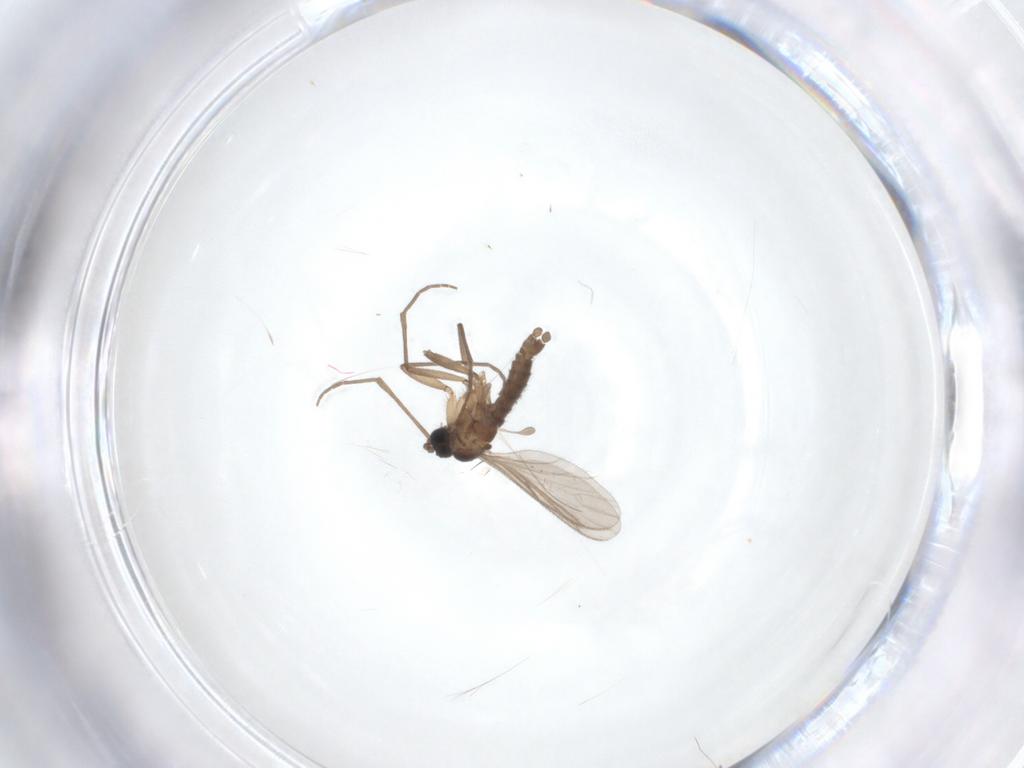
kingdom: Animalia
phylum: Arthropoda
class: Insecta
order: Diptera
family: Sciaridae
